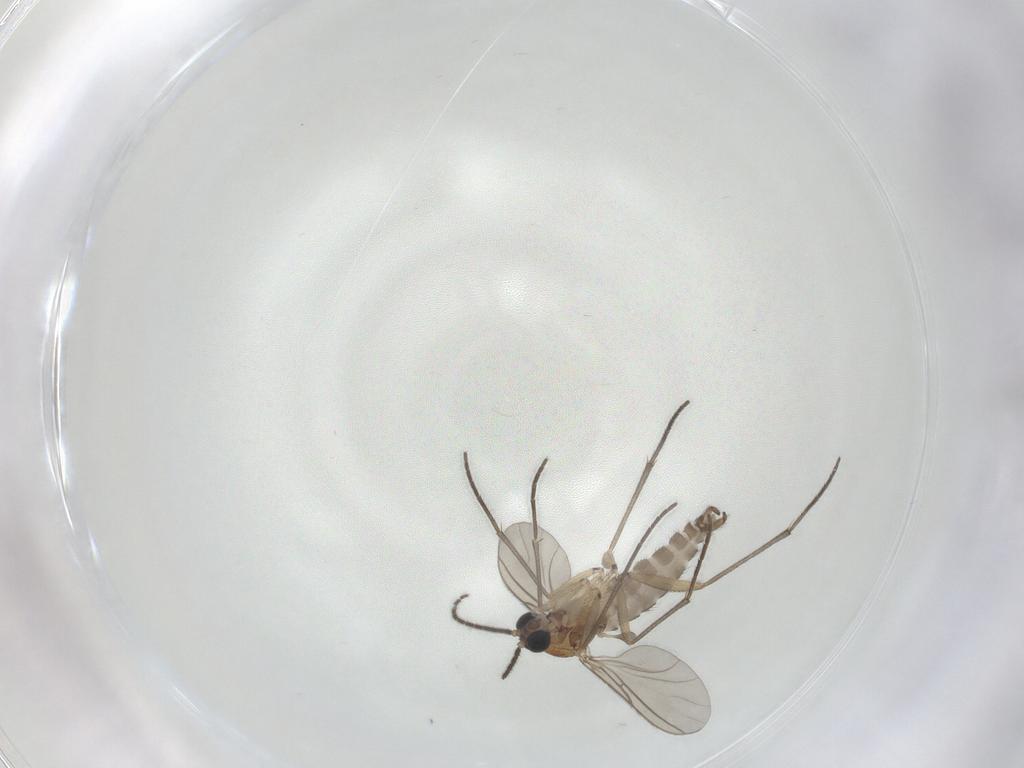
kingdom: Animalia
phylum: Arthropoda
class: Insecta
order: Diptera
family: Sciaridae
